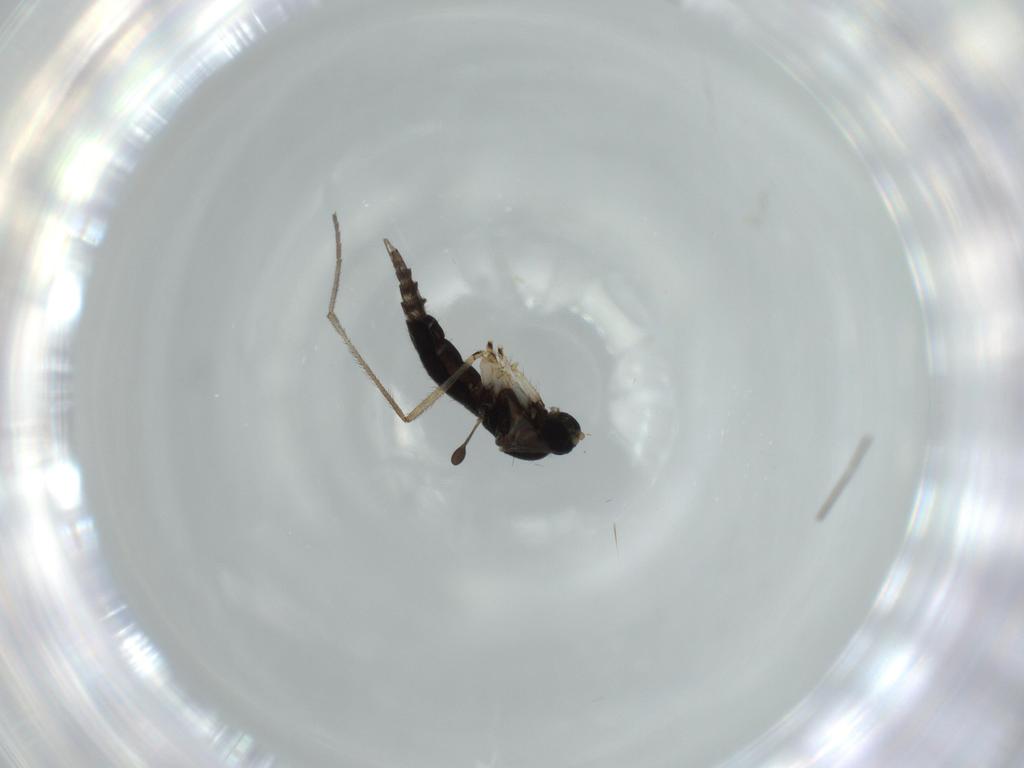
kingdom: Animalia
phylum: Arthropoda
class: Insecta
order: Diptera
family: Sciaridae
